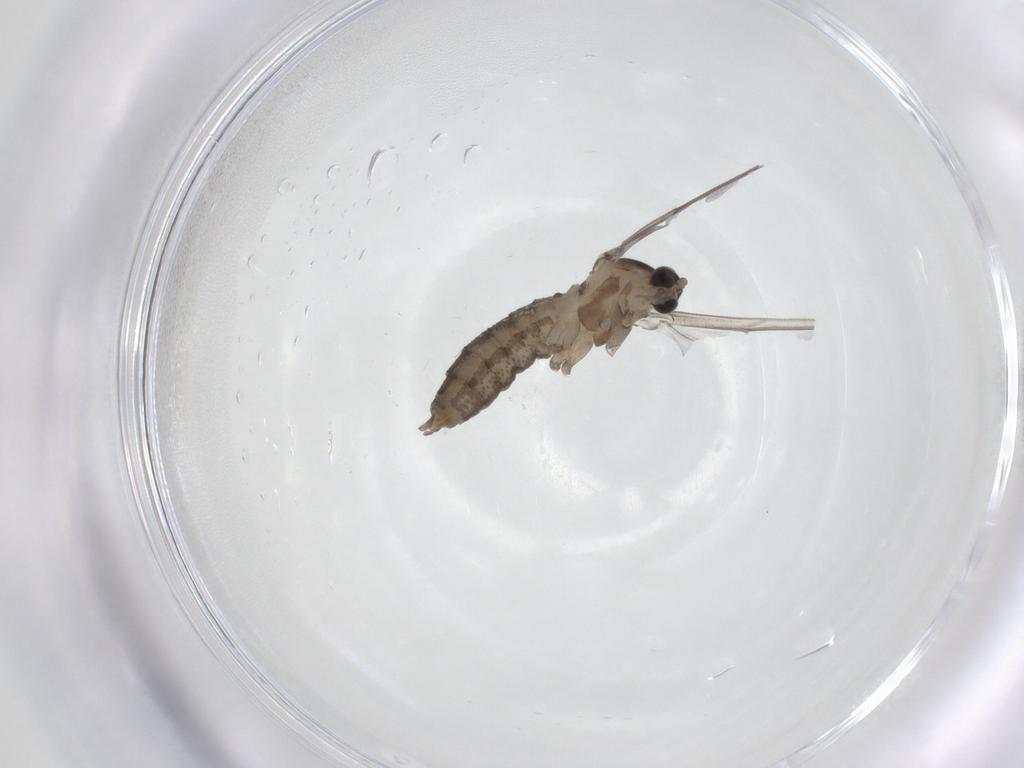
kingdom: Animalia
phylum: Arthropoda
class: Insecta
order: Diptera
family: Cecidomyiidae
